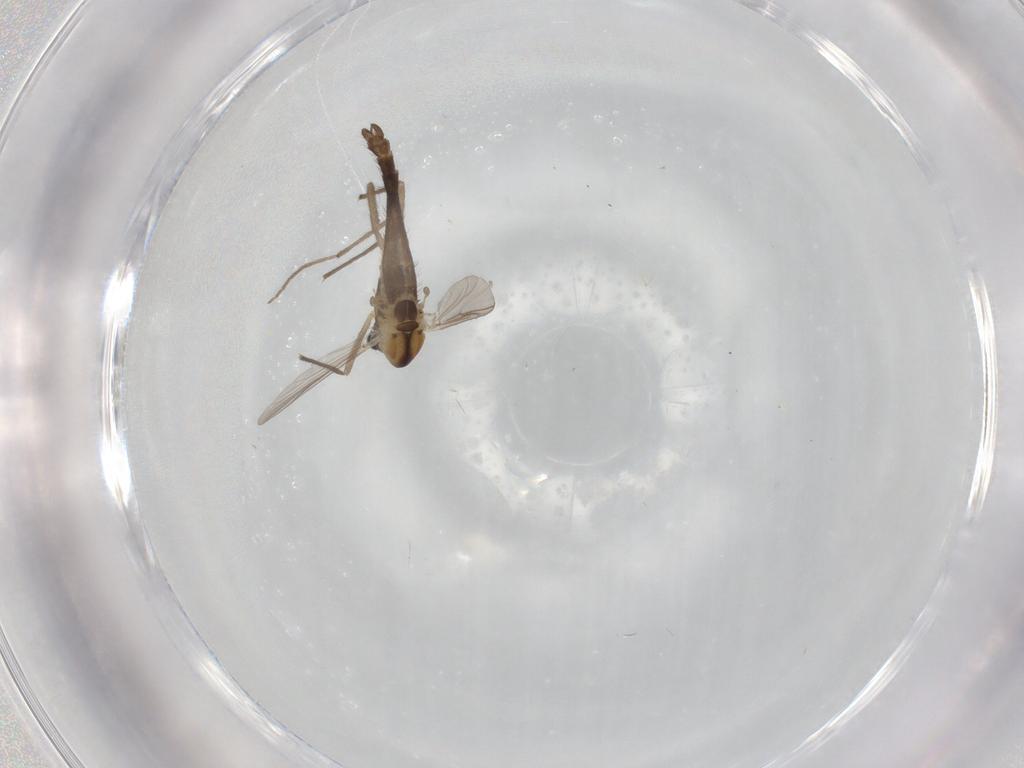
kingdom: Animalia
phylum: Arthropoda
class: Insecta
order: Diptera
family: Chironomidae
